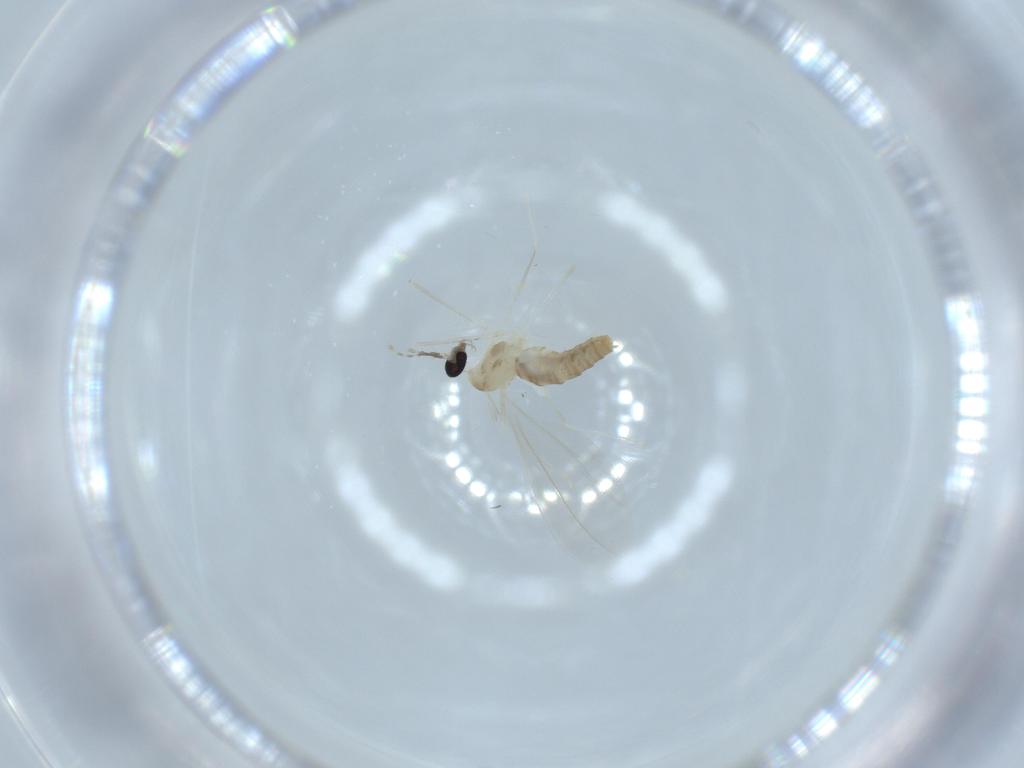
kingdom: Animalia
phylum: Arthropoda
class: Insecta
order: Diptera
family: Cecidomyiidae
